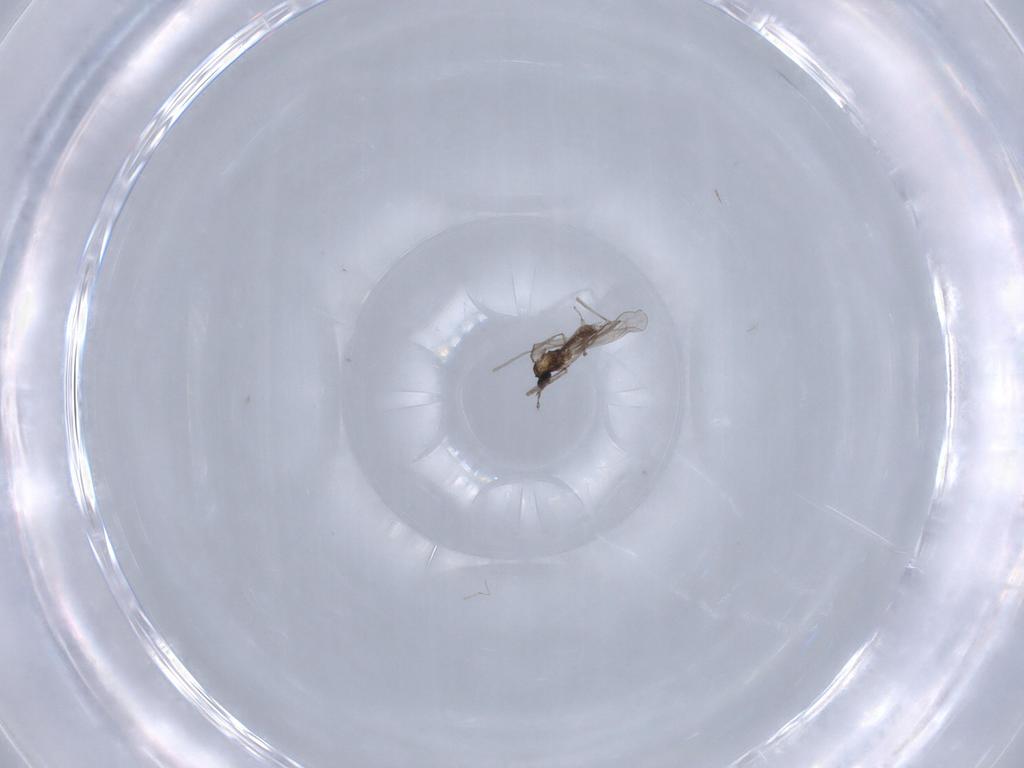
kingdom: Animalia
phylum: Arthropoda
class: Insecta
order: Diptera
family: Cecidomyiidae
